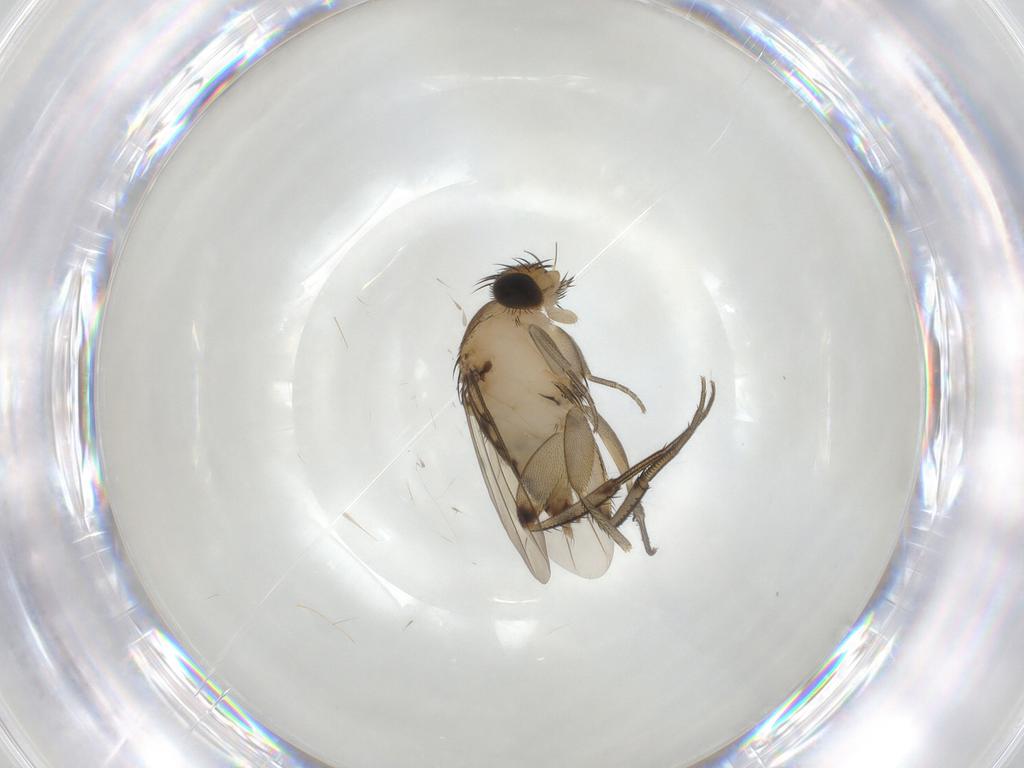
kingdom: Animalia
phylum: Arthropoda
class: Insecta
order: Diptera
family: Phoridae
